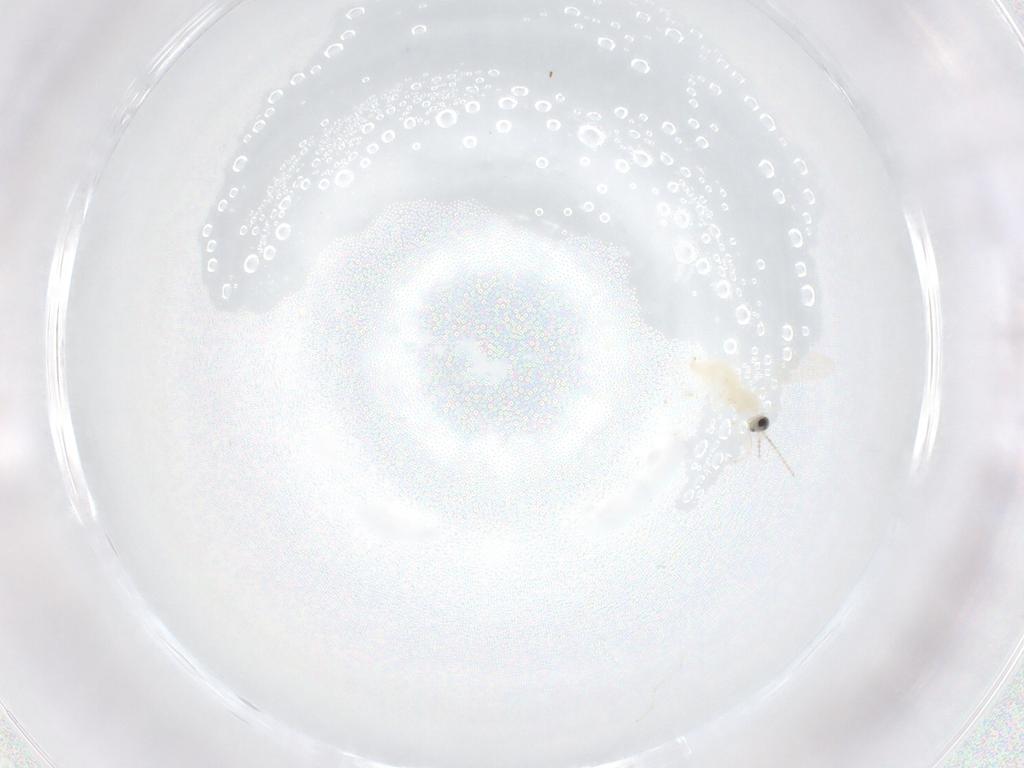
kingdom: Animalia
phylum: Arthropoda
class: Insecta
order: Diptera
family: Cecidomyiidae
